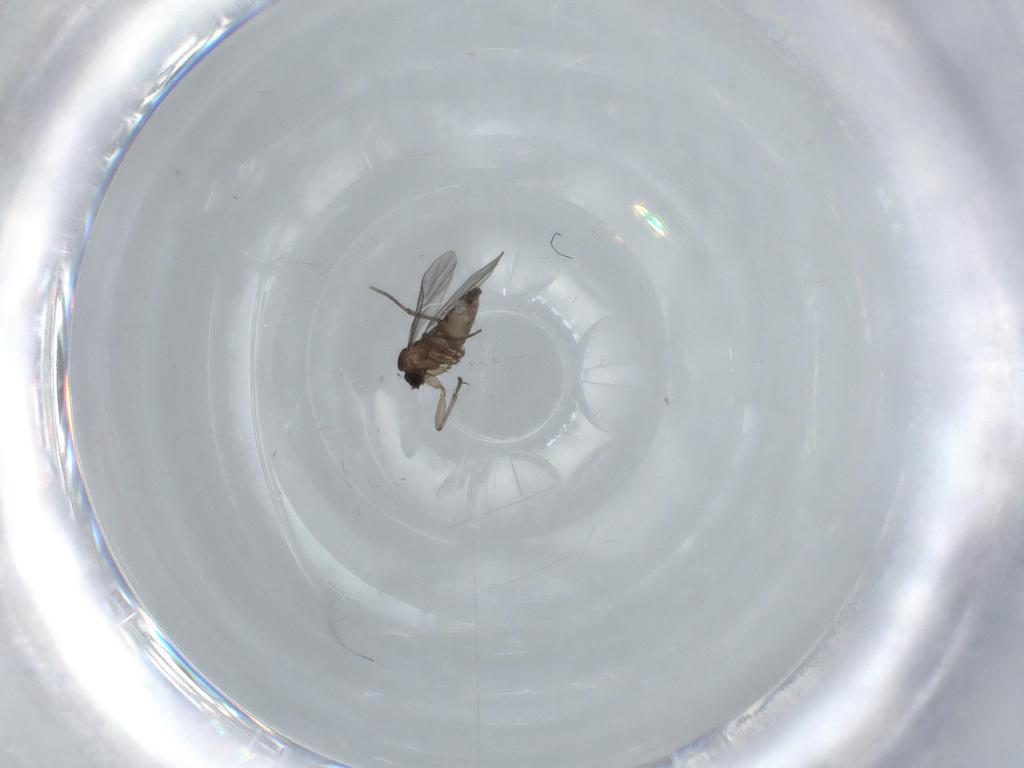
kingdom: Animalia
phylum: Arthropoda
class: Insecta
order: Diptera
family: Sciaridae
